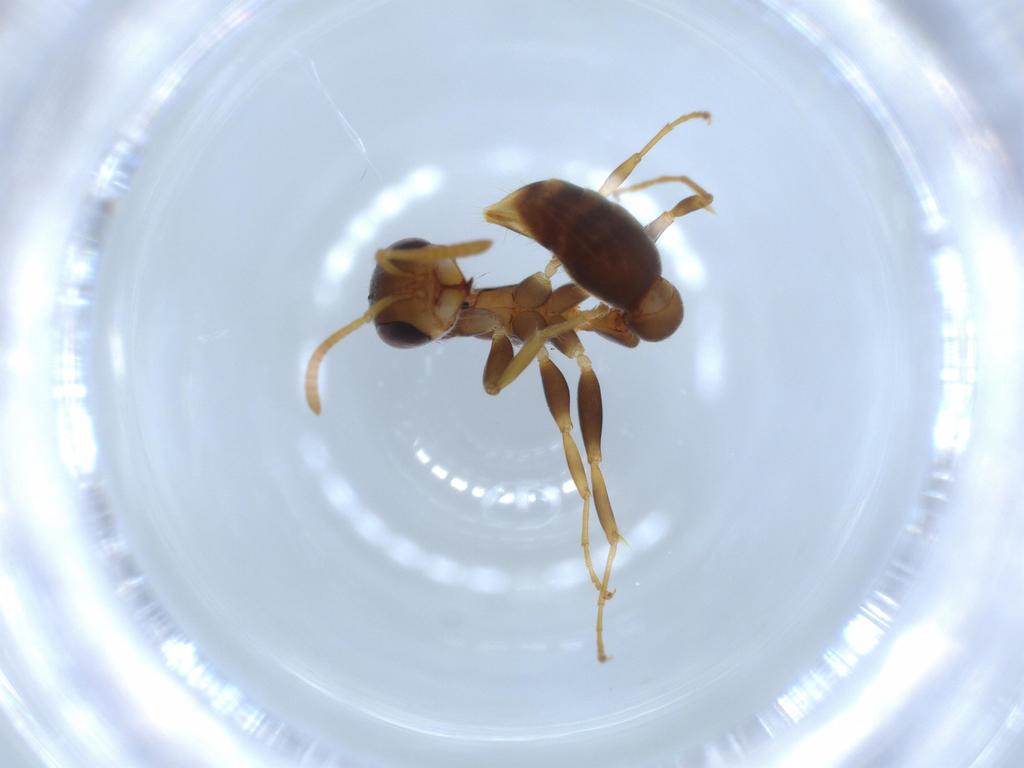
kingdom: Animalia
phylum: Arthropoda
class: Insecta
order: Hymenoptera
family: Formicidae
